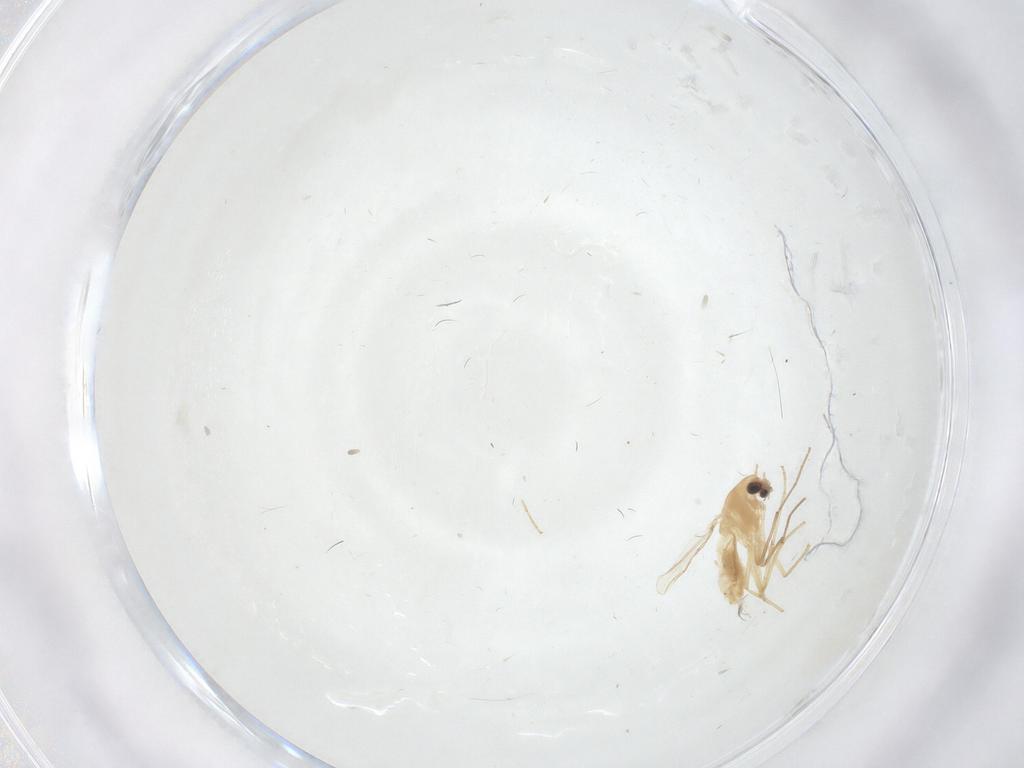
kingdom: Animalia
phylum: Arthropoda
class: Insecta
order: Diptera
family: Chironomidae
